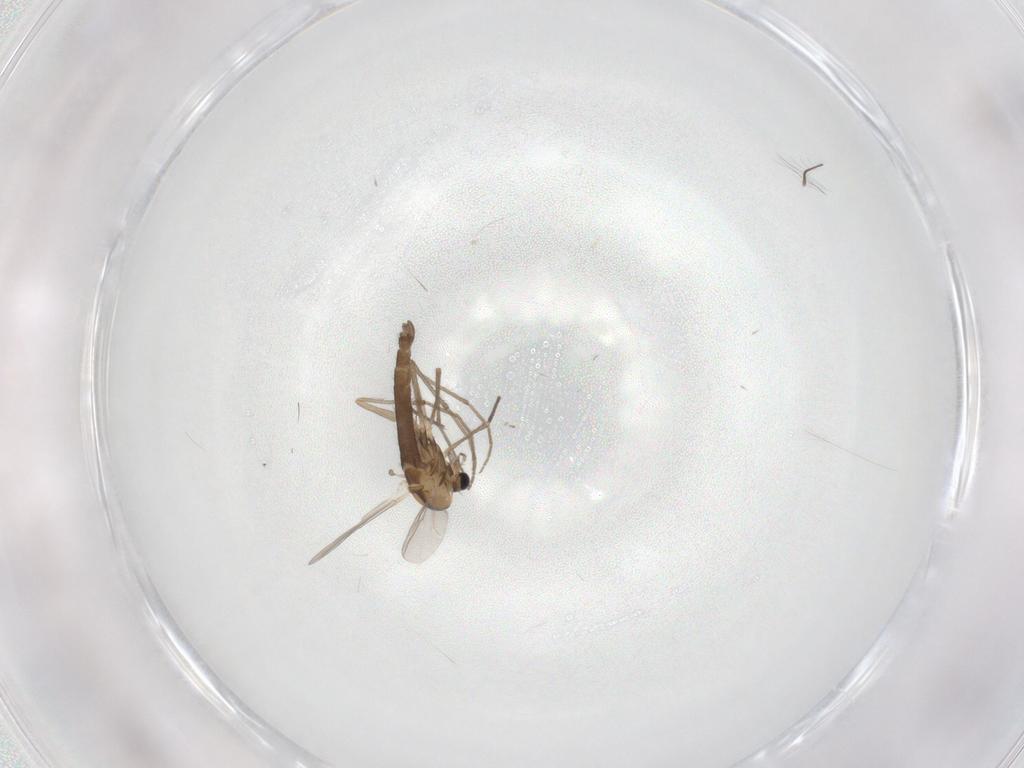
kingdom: Animalia
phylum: Arthropoda
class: Insecta
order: Diptera
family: Chironomidae
